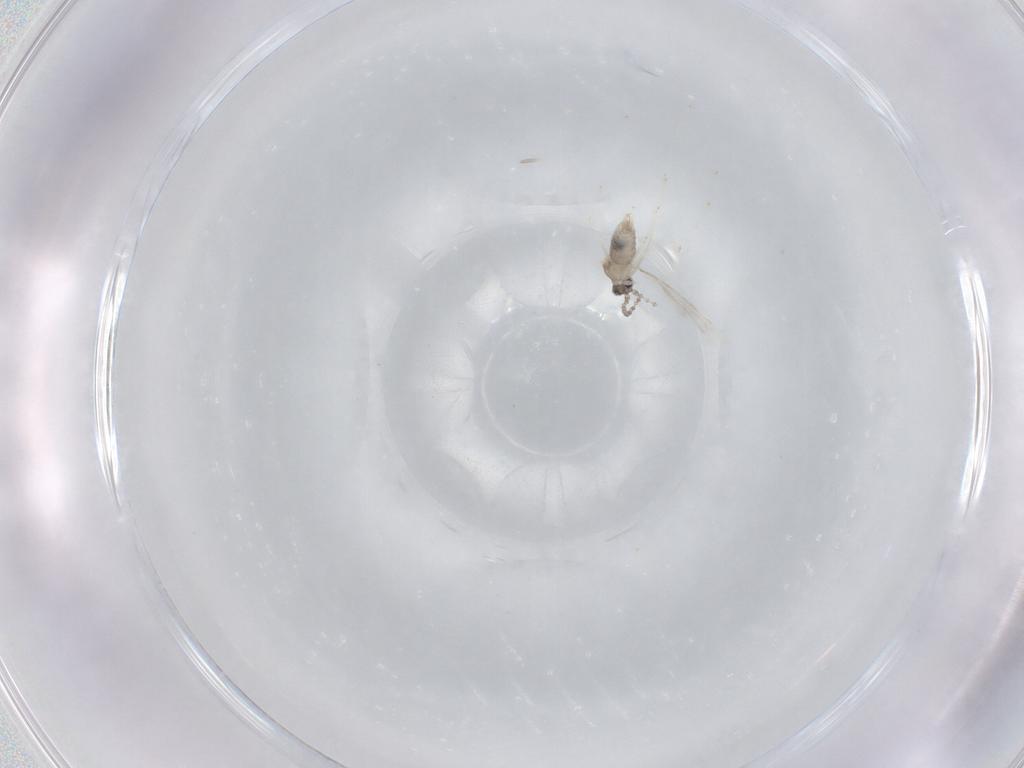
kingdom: Animalia
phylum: Arthropoda
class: Insecta
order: Diptera
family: Cecidomyiidae
